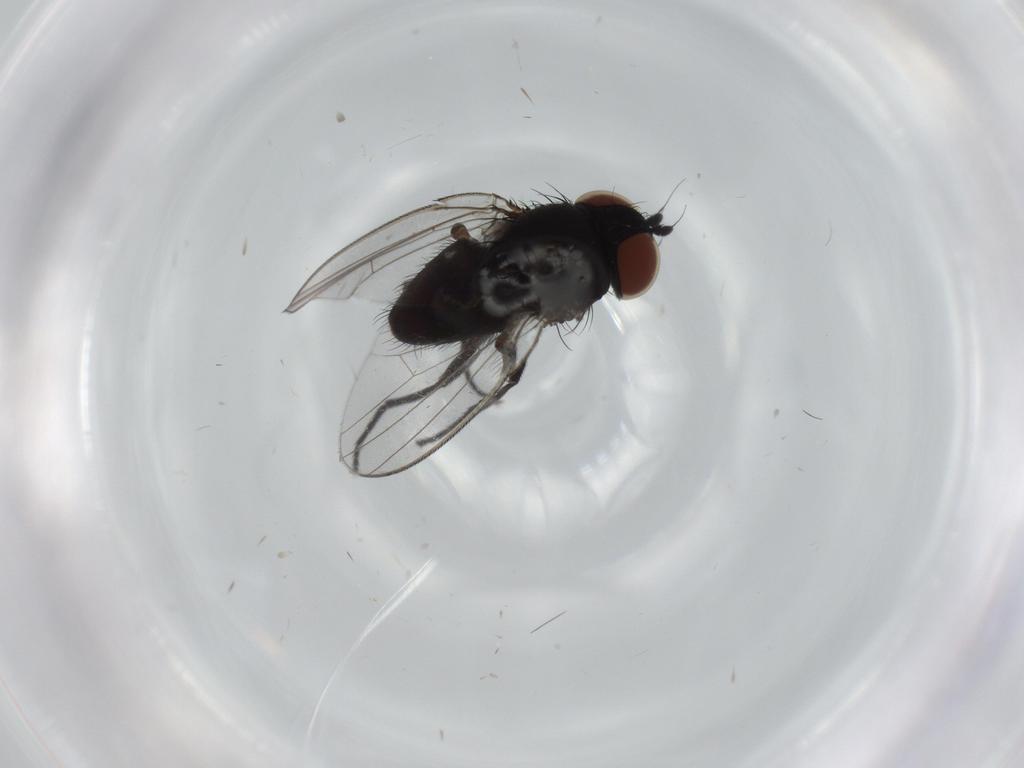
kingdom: Animalia
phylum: Arthropoda
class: Insecta
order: Diptera
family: Milichiidae
